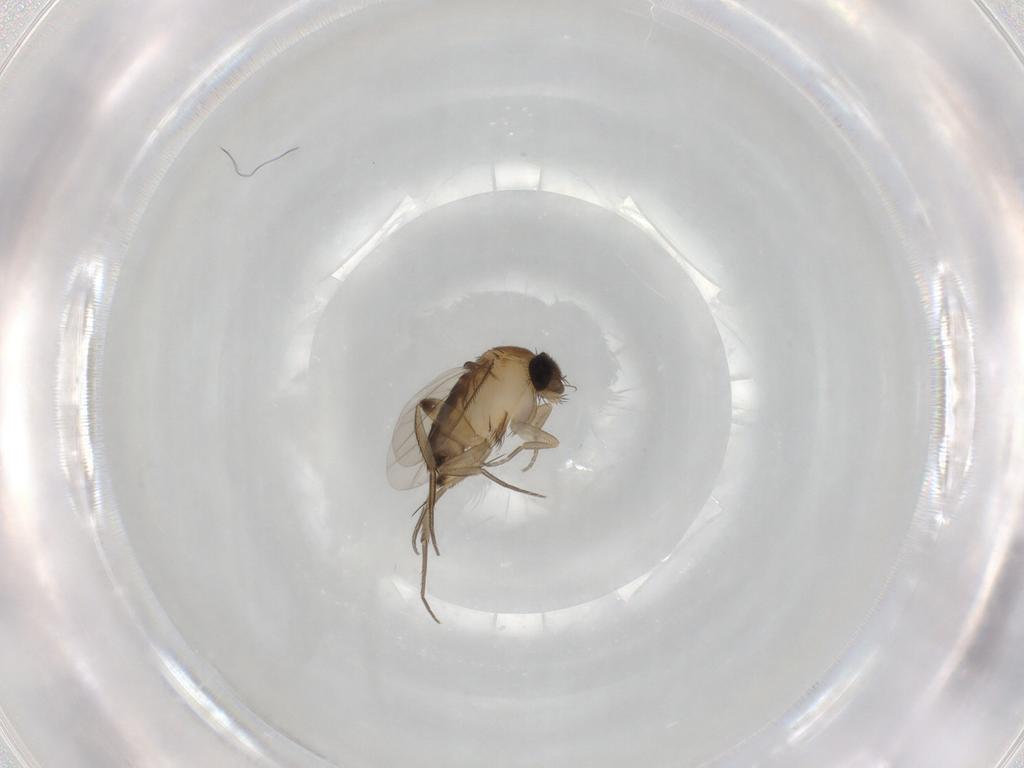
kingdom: Animalia
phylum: Arthropoda
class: Insecta
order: Diptera
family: Phoridae
